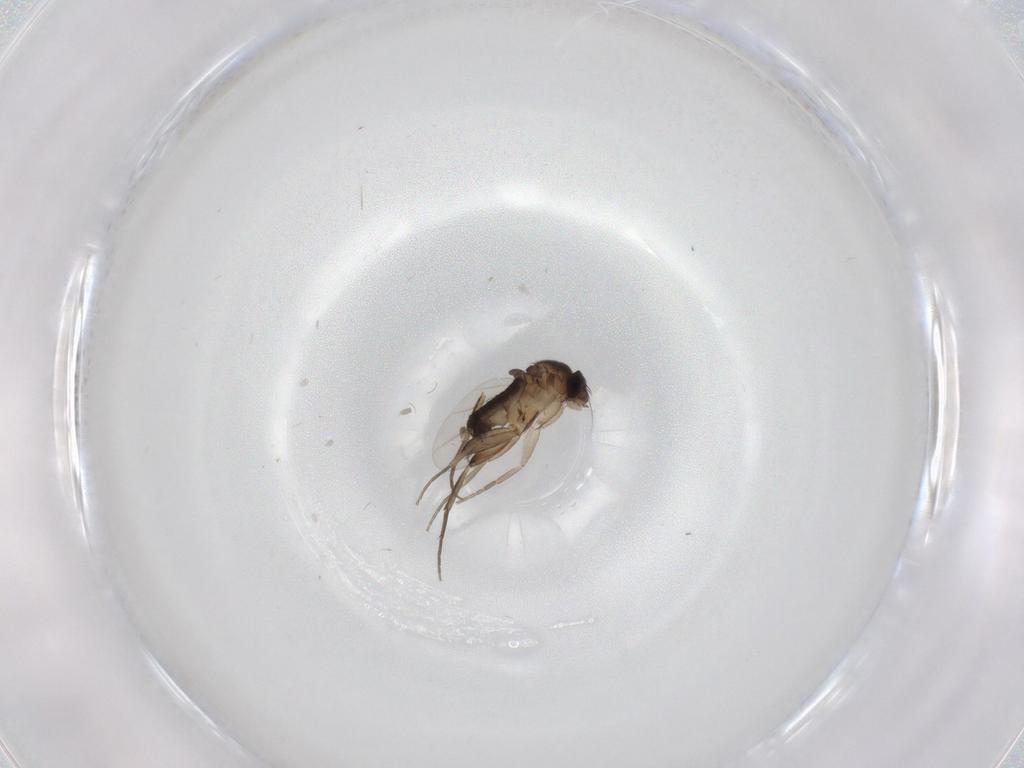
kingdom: Animalia
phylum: Arthropoda
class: Insecta
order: Diptera
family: Phoridae
